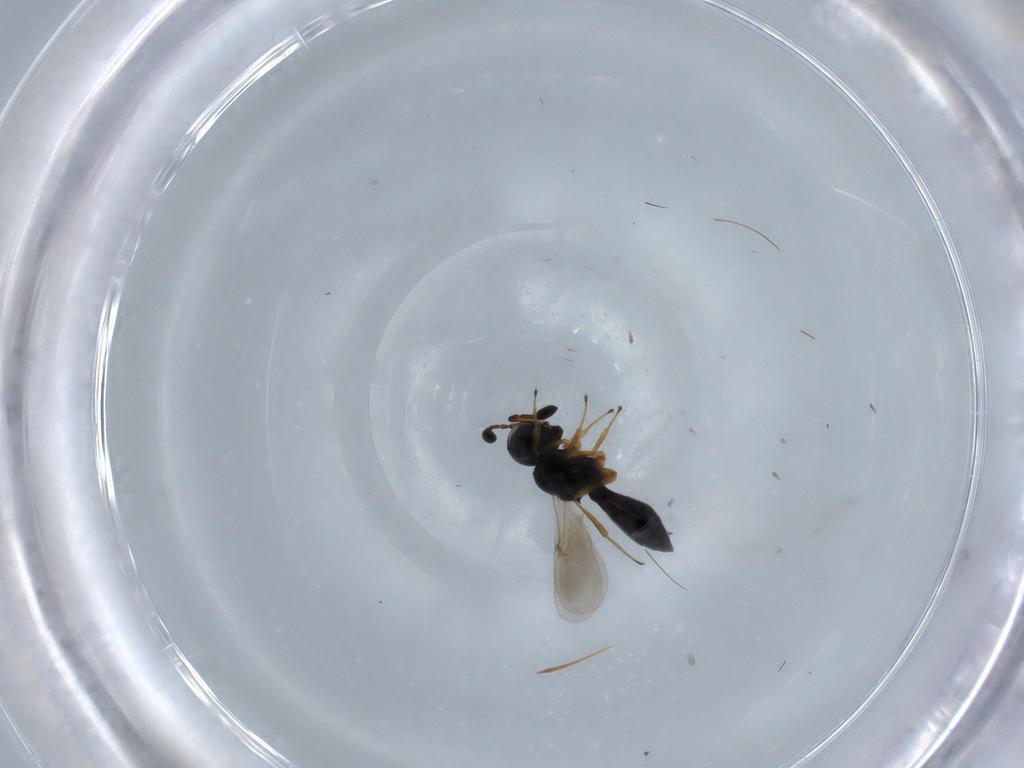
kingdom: Animalia
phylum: Arthropoda
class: Insecta
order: Hymenoptera
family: Scelionidae
